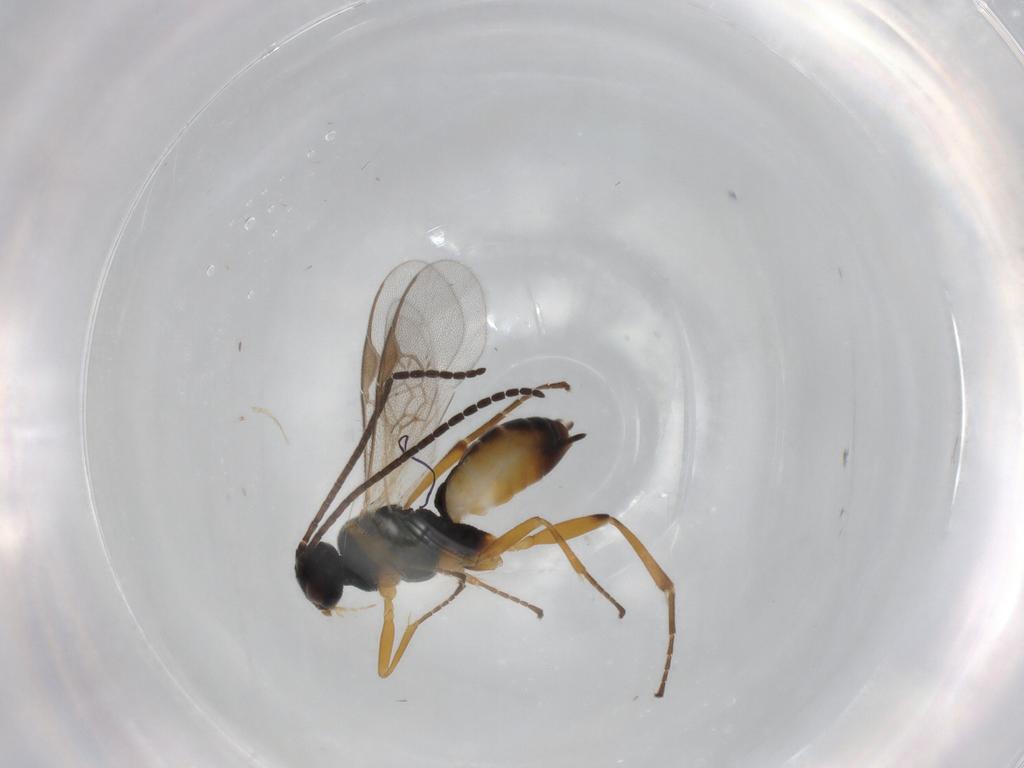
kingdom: Animalia
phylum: Arthropoda
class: Insecta
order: Hymenoptera
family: Braconidae
